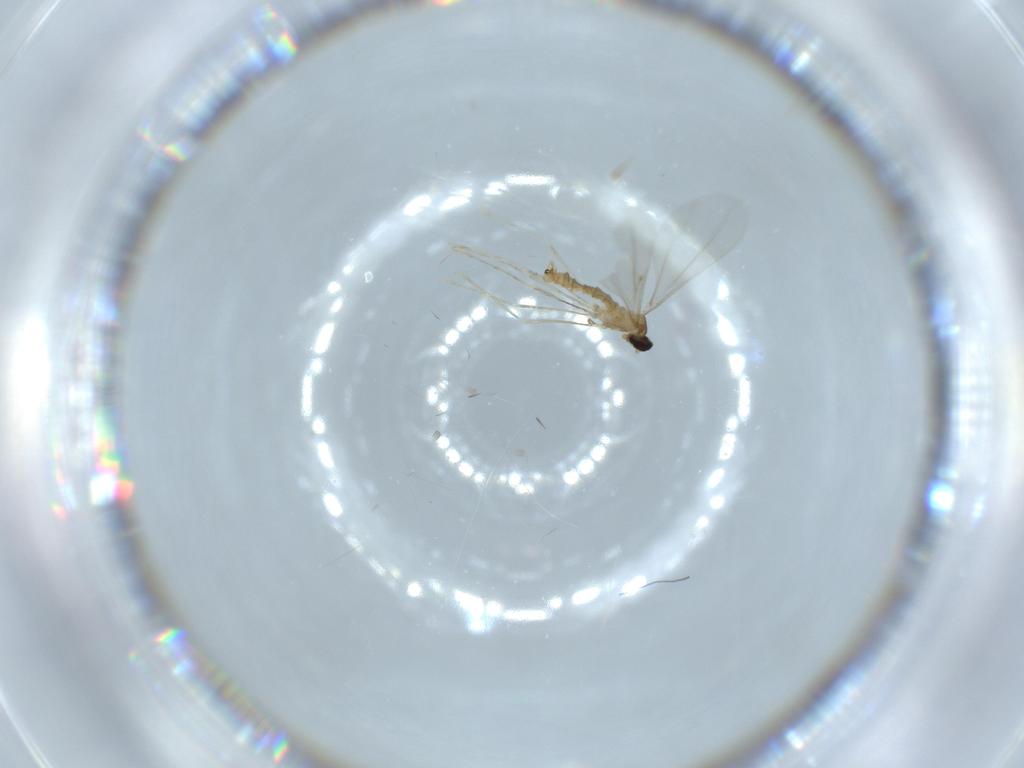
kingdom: Animalia
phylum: Arthropoda
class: Insecta
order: Diptera
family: Cecidomyiidae
